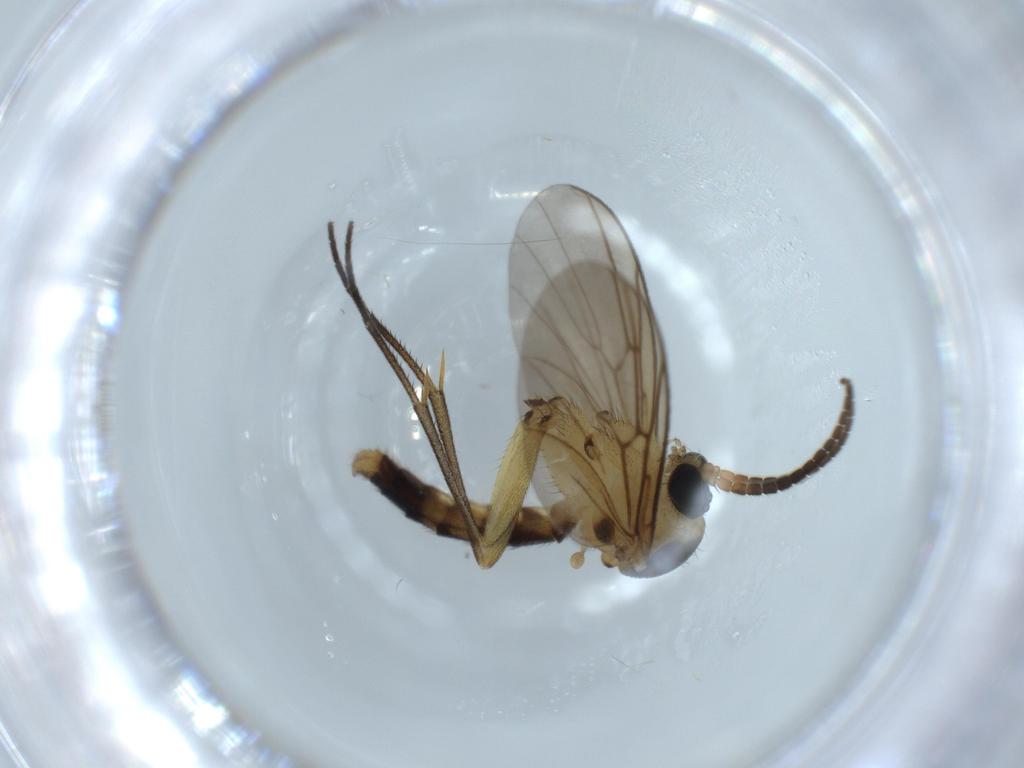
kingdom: Animalia
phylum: Arthropoda
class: Insecta
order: Diptera
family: Mycetophilidae
